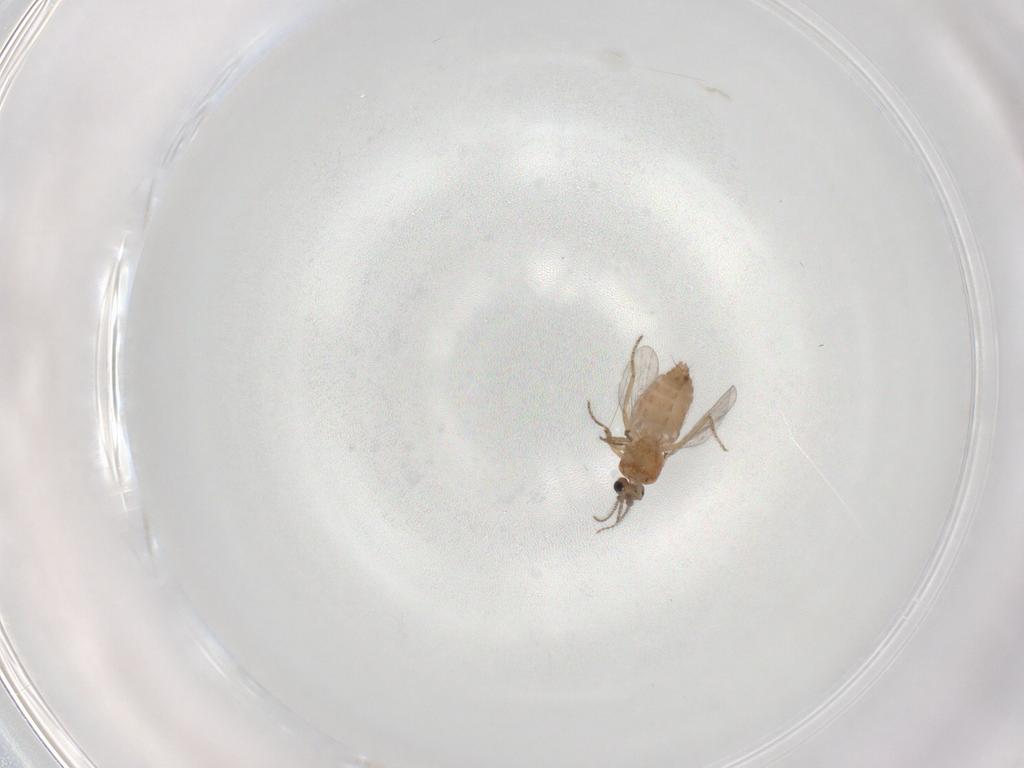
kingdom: Animalia
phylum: Arthropoda
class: Insecta
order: Diptera
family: Ceratopogonidae
